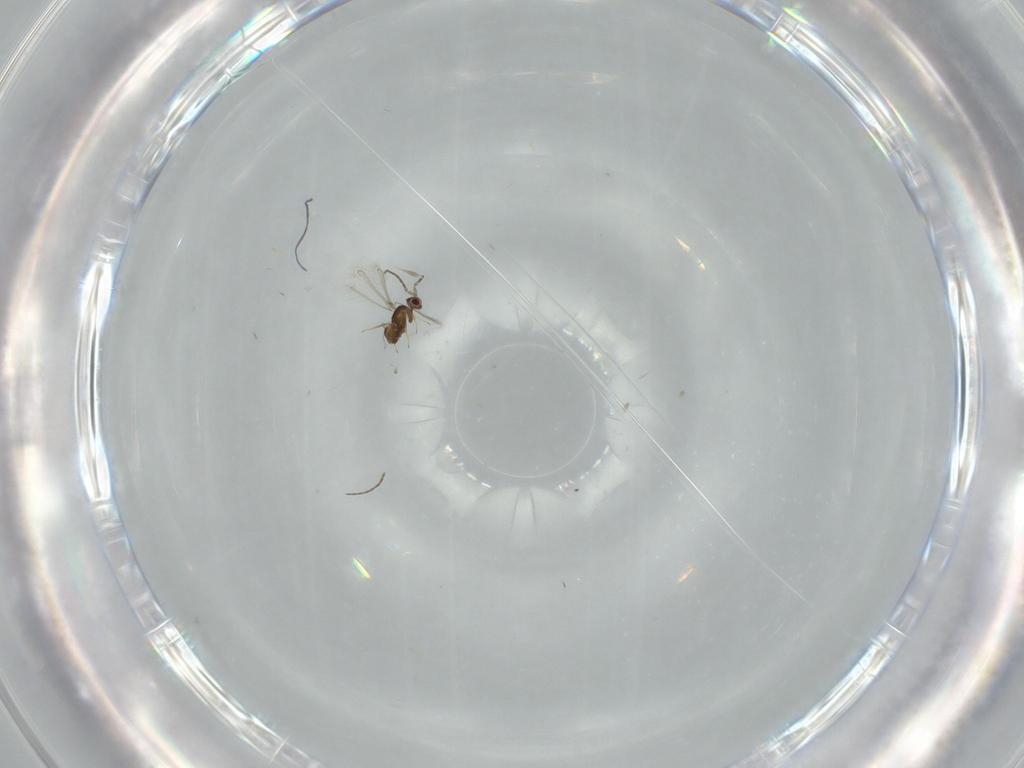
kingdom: Animalia
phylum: Arthropoda
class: Insecta
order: Hymenoptera
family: Figitidae
